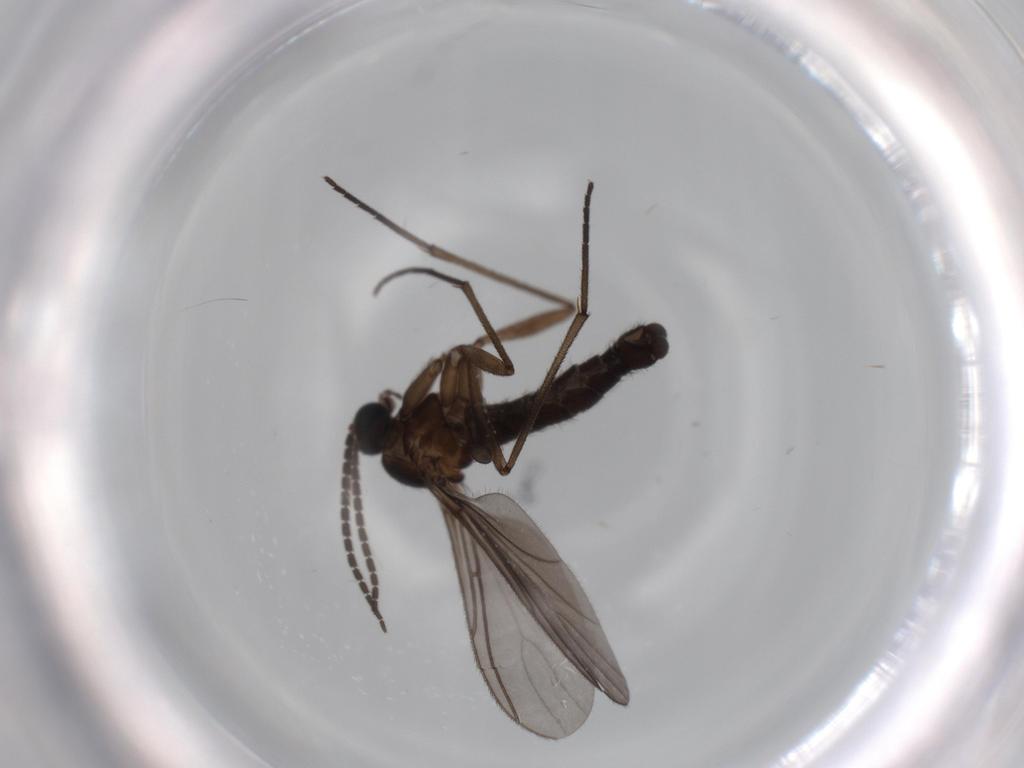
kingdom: Animalia
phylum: Arthropoda
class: Insecta
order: Diptera
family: Sciaridae
